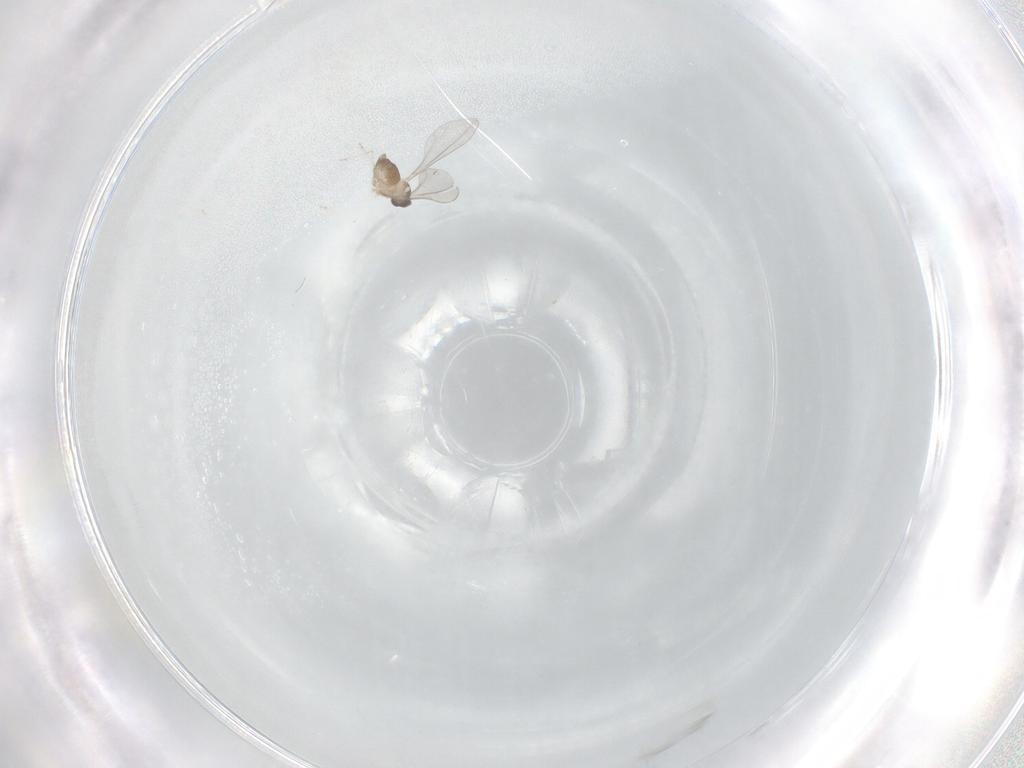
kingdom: Animalia
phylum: Arthropoda
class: Insecta
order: Diptera
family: Cecidomyiidae
